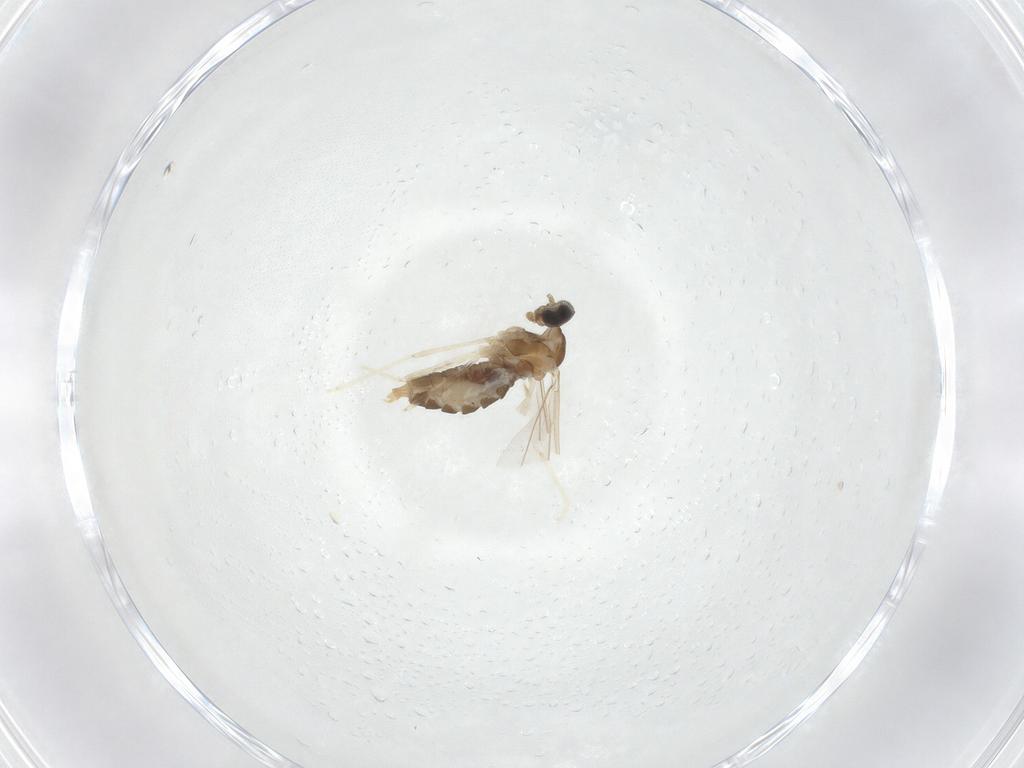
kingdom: Animalia
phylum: Arthropoda
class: Insecta
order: Diptera
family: Cecidomyiidae
